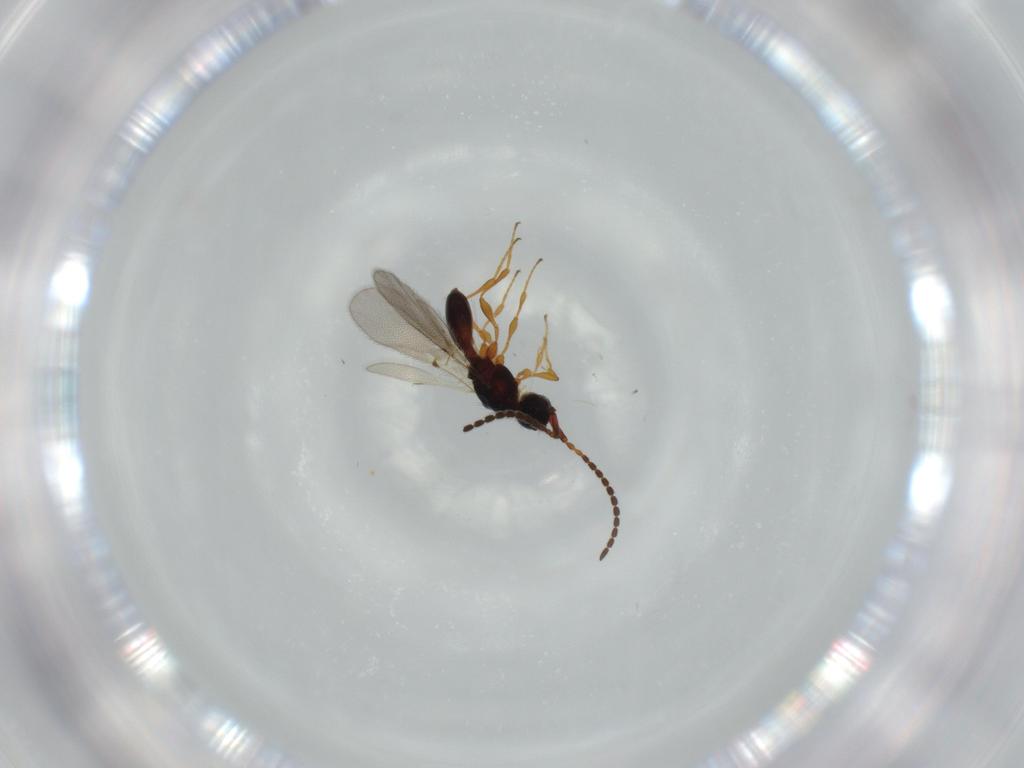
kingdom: Animalia
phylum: Arthropoda
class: Insecta
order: Hymenoptera
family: Diapriidae
